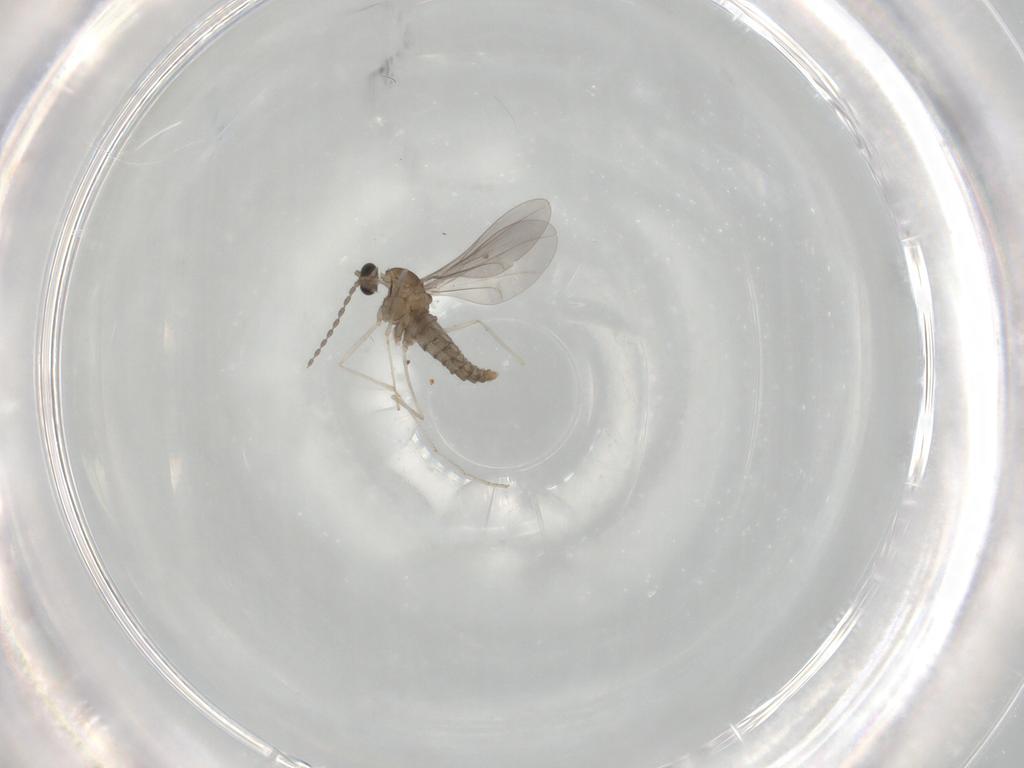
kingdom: Animalia
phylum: Arthropoda
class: Insecta
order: Diptera
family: Cecidomyiidae
